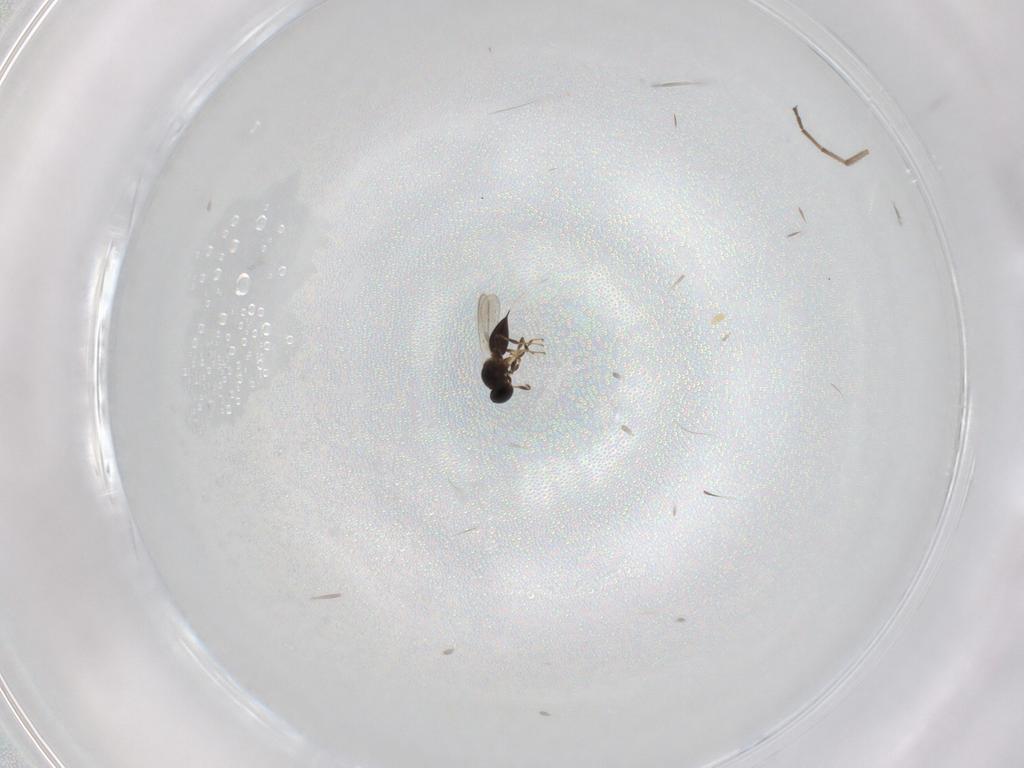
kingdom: Animalia
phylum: Arthropoda
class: Insecta
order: Hymenoptera
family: Platygastridae
